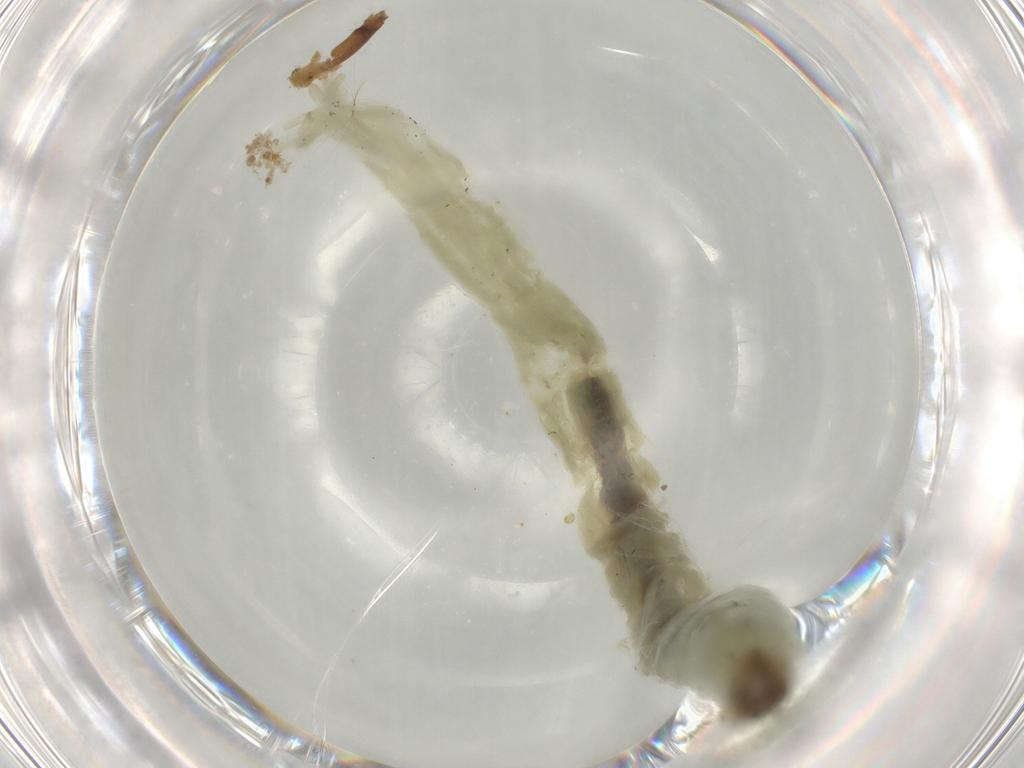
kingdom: Animalia
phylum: Arthropoda
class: Insecta
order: Diptera
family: Chironomidae
